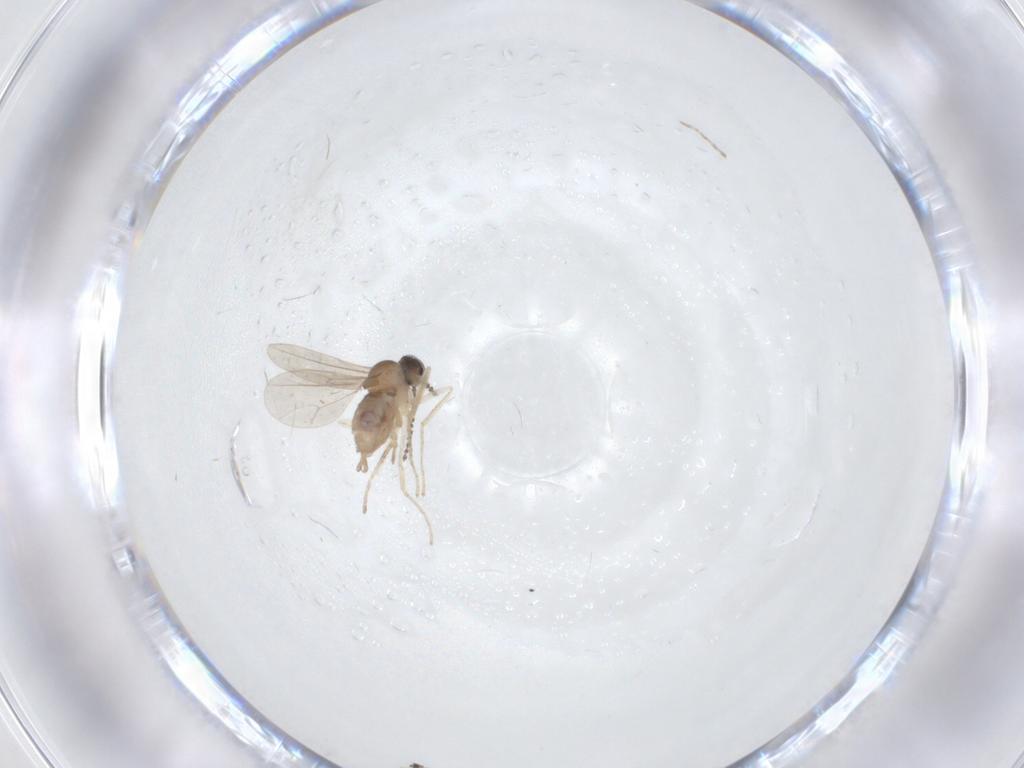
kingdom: Animalia
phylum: Arthropoda
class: Insecta
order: Diptera
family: Cecidomyiidae
